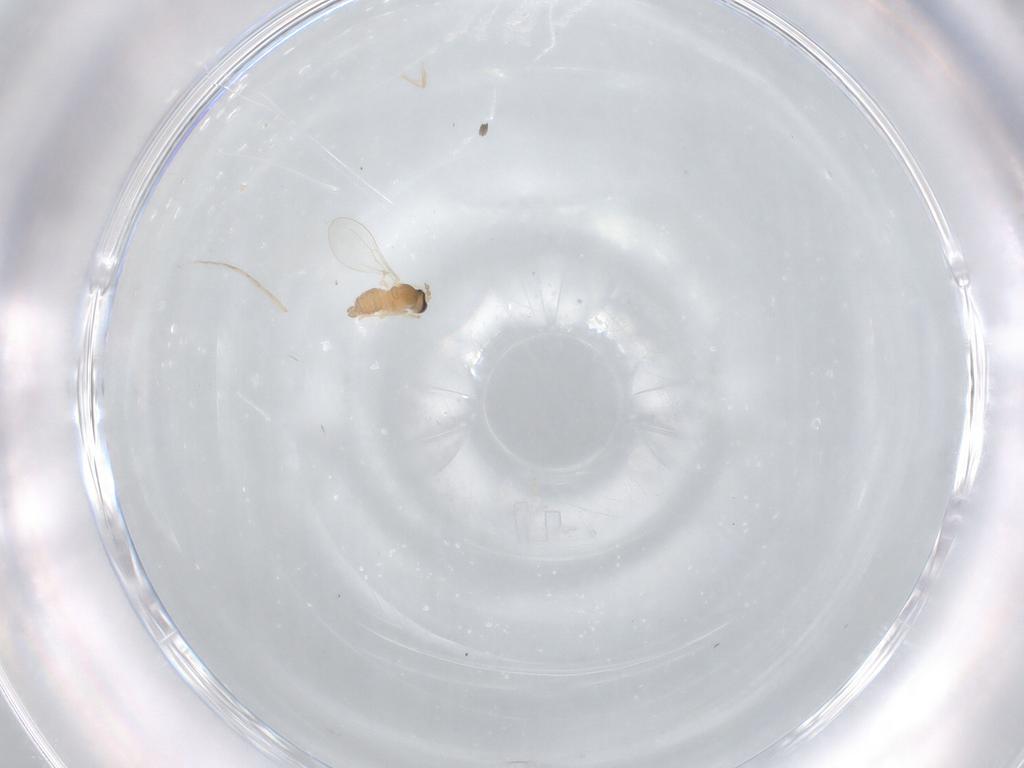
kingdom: Animalia
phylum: Arthropoda
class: Insecta
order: Diptera
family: Cecidomyiidae
